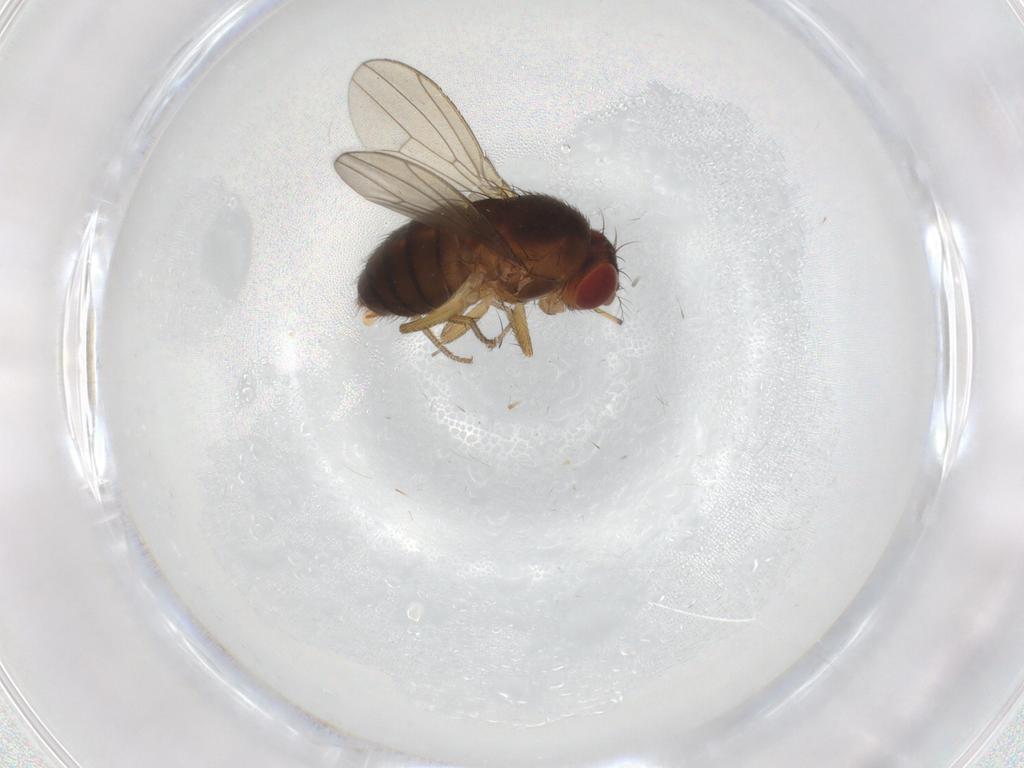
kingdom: Animalia
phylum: Arthropoda
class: Insecta
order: Diptera
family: Drosophilidae
